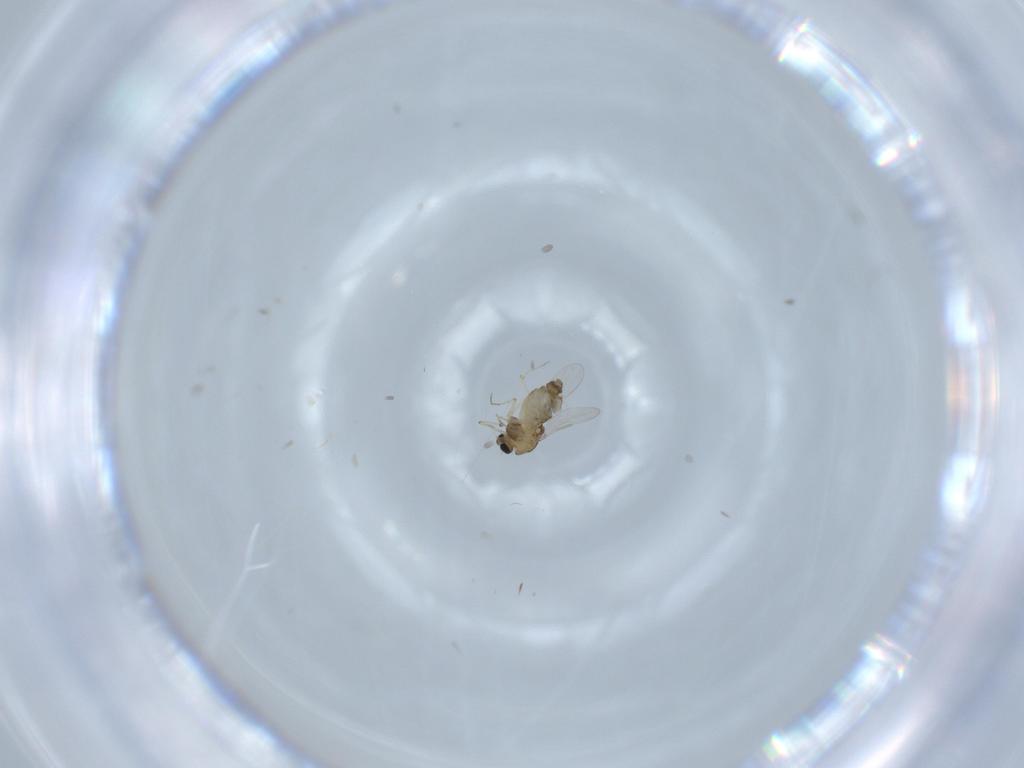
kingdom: Animalia
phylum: Arthropoda
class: Insecta
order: Diptera
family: Chironomidae
